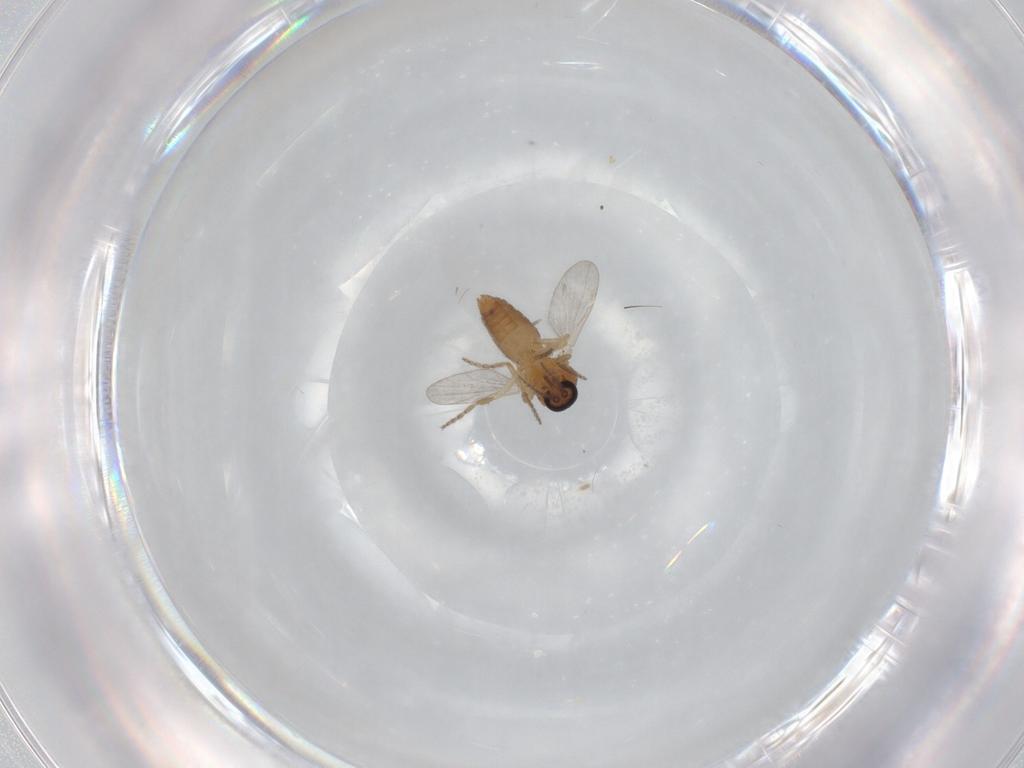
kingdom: Animalia
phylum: Arthropoda
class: Insecta
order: Diptera
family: Ceratopogonidae
